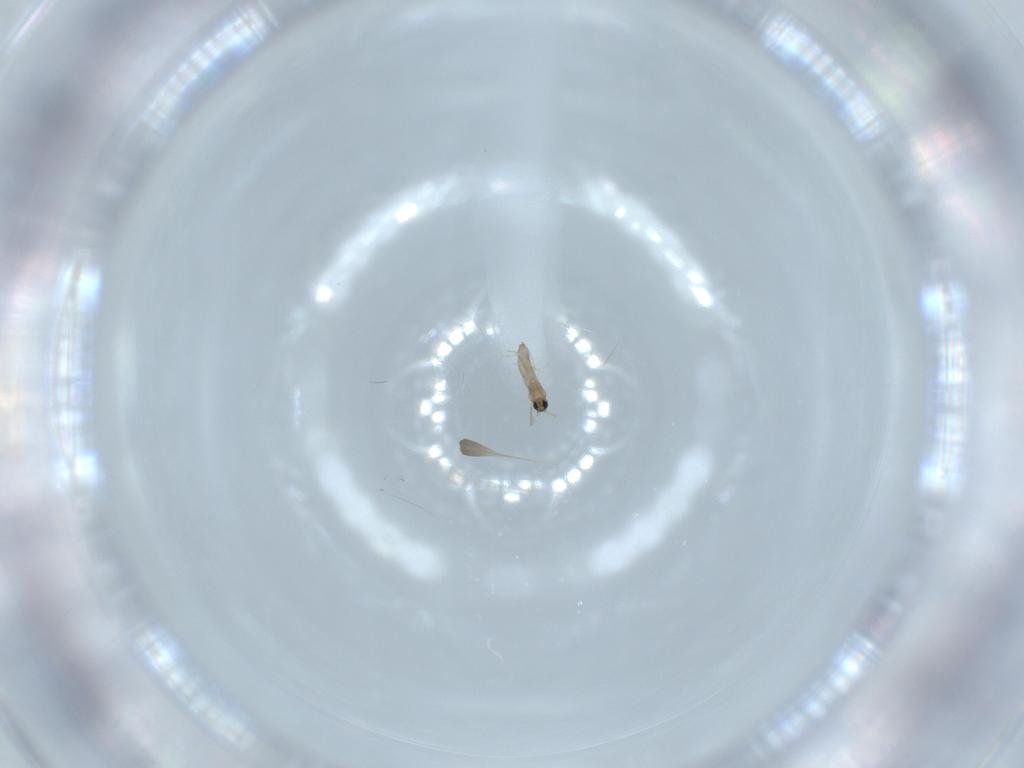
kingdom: Animalia
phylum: Arthropoda
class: Insecta
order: Diptera
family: Cecidomyiidae
